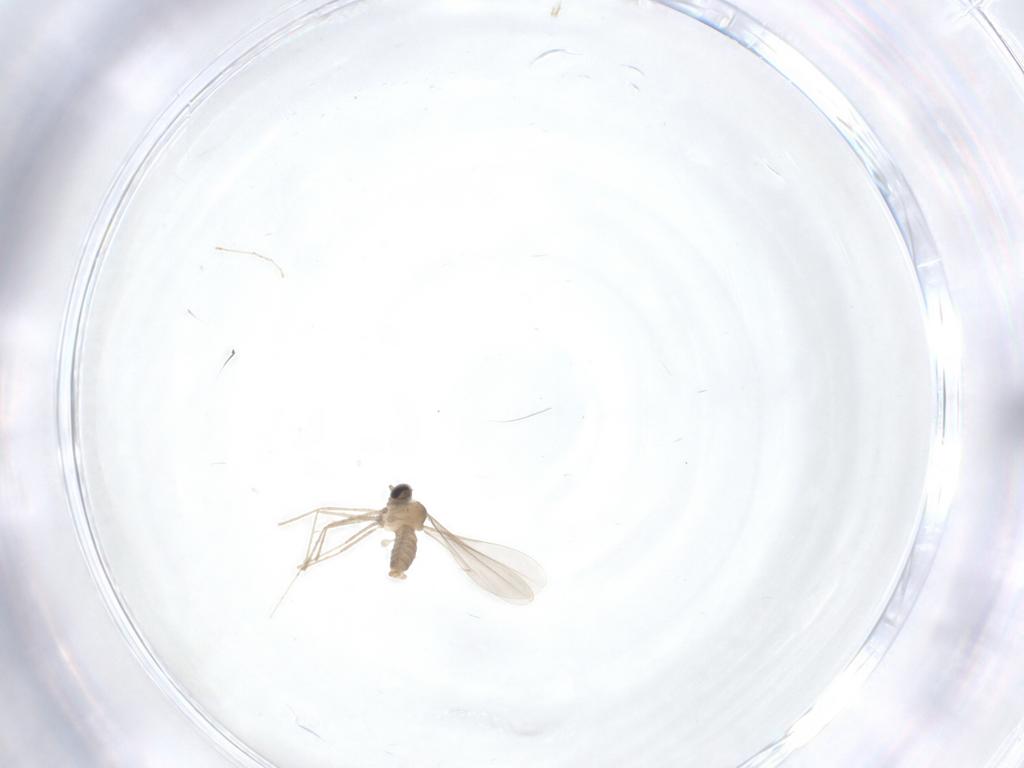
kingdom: Animalia
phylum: Arthropoda
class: Insecta
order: Diptera
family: Cecidomyiidae
